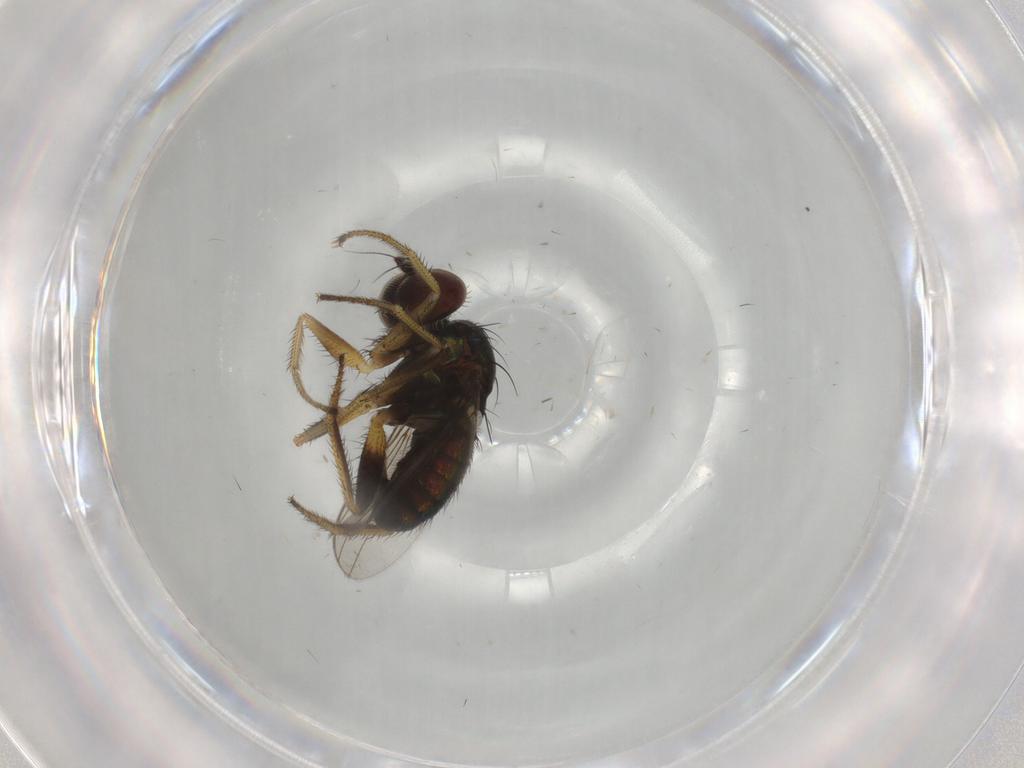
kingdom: Animalia
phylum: Arthropoda
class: Insecta
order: Diptera
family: Dolichopodidae
